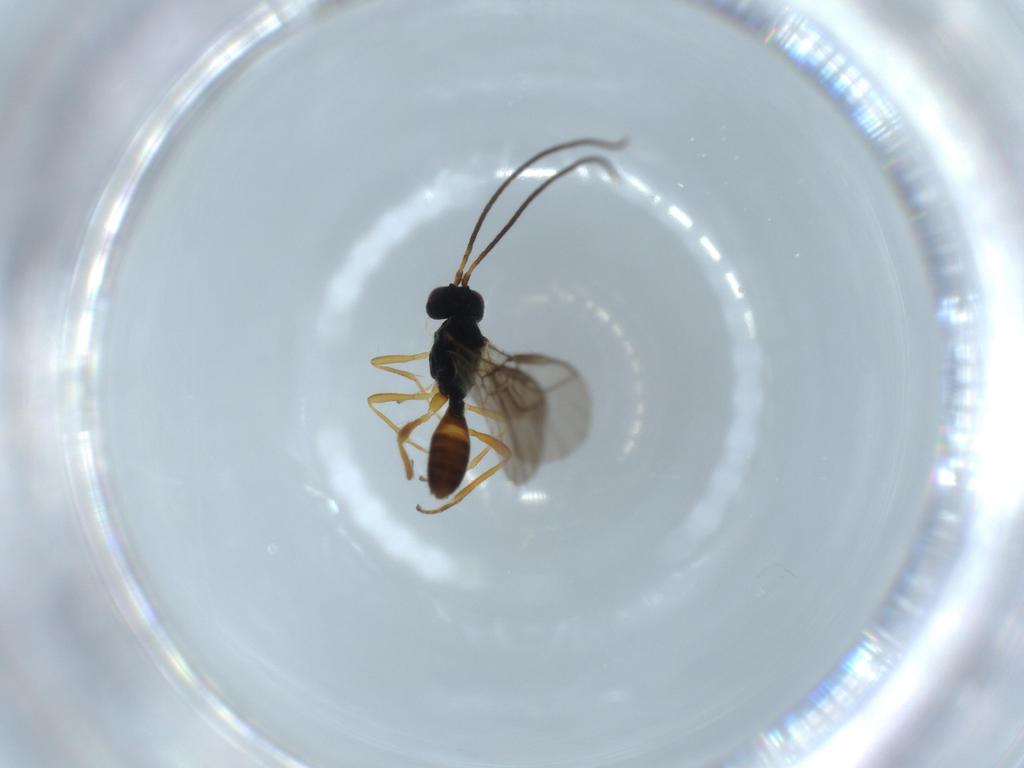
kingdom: Animalia
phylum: Arthropoda
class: Insecta
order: Hymenoptera
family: Braconidae
